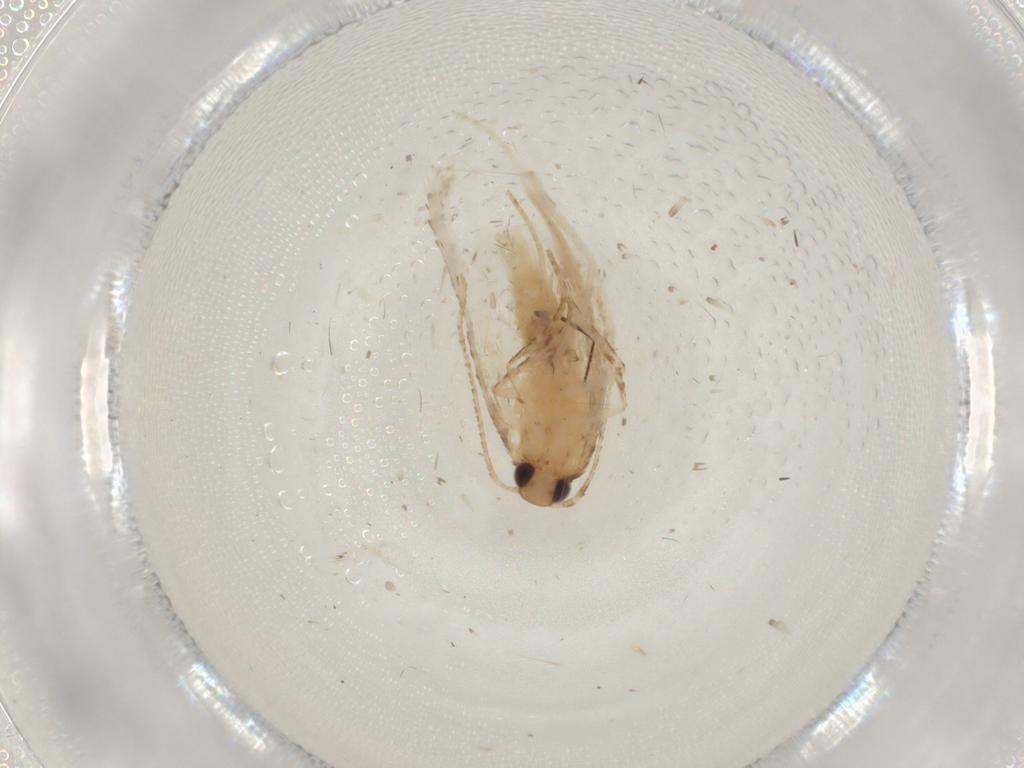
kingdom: Animalia
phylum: Arthropoda
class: Insecta
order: Lepidoptera
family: Gelechiidae
